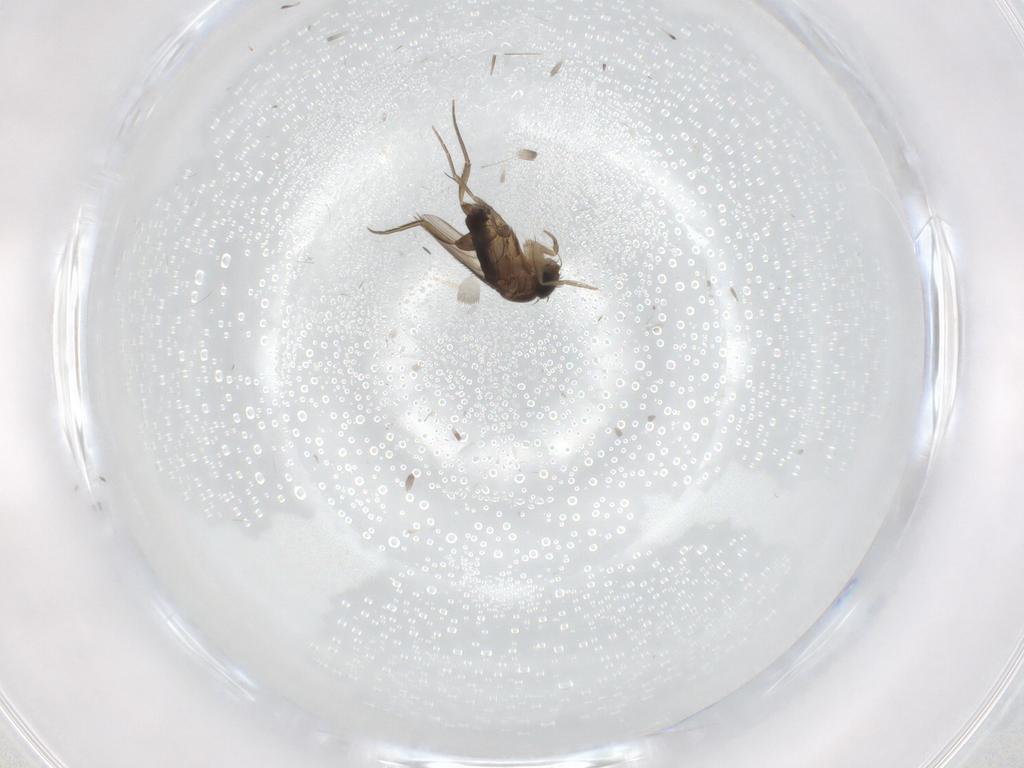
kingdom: Animalia
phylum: Arthropoda
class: Insecta
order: Diptera
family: Phoridae
